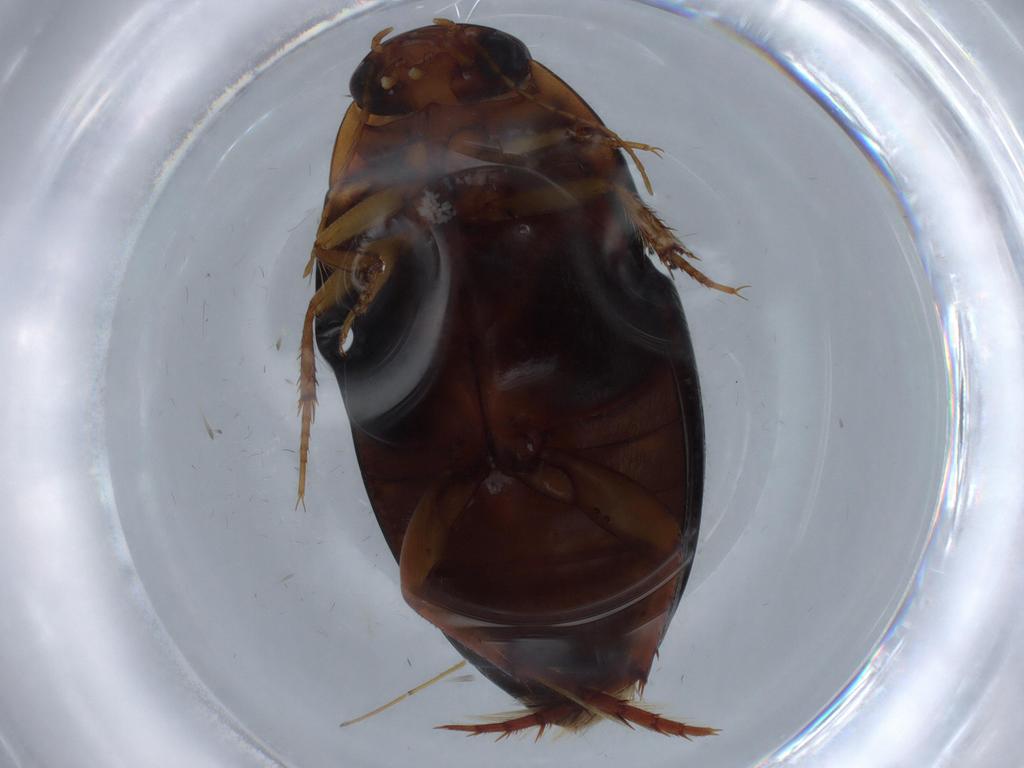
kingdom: Animalia
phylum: Arthropoda
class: Insecta
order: Coleoptera
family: Dytiscidae
